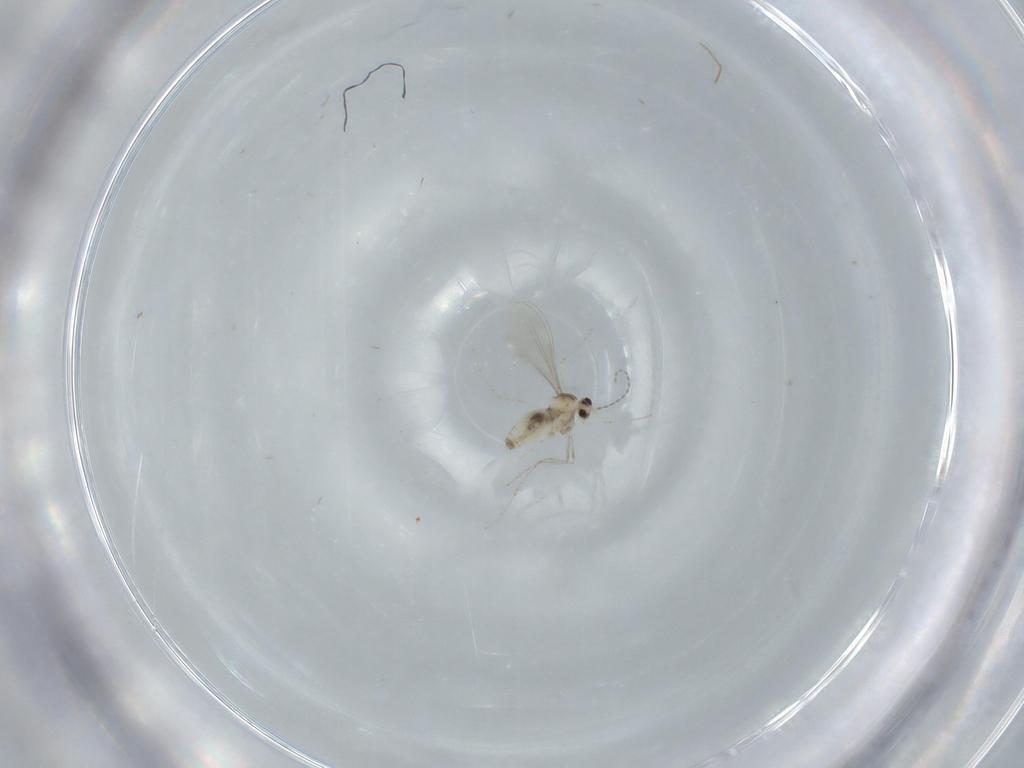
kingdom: Animalia
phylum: Arthropoda
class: Insecta
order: Diptera
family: Cecidomyiidae
